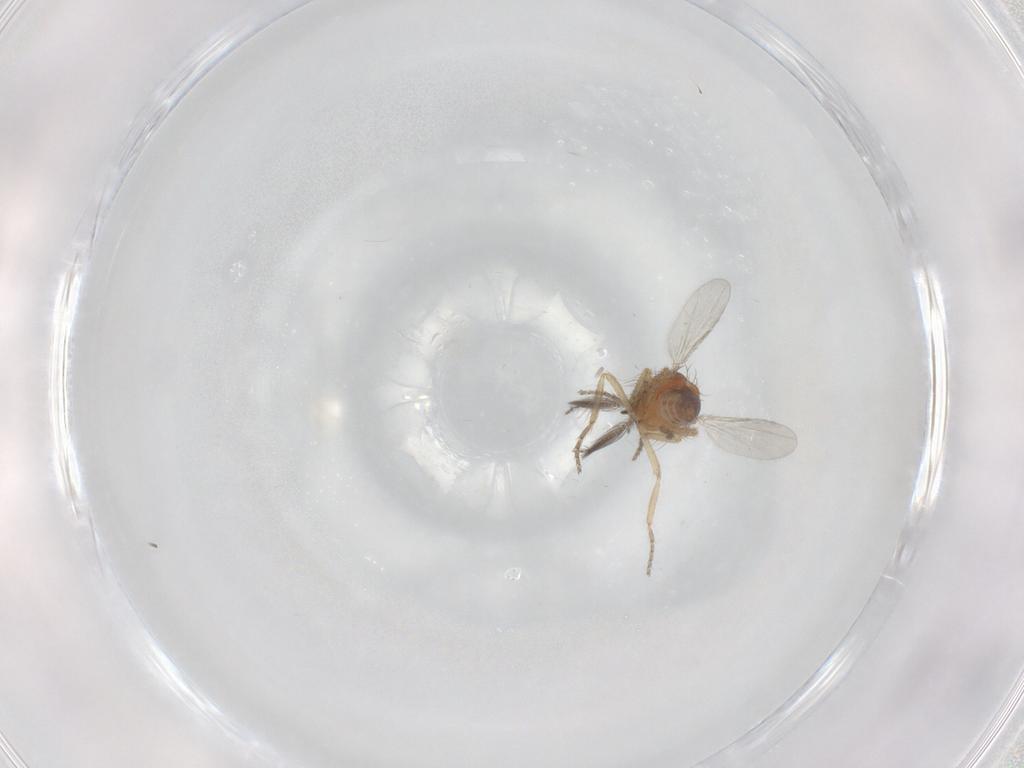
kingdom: Animalia
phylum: Arthropoda
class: Insecta
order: Diptera
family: Ceratopogonidae
